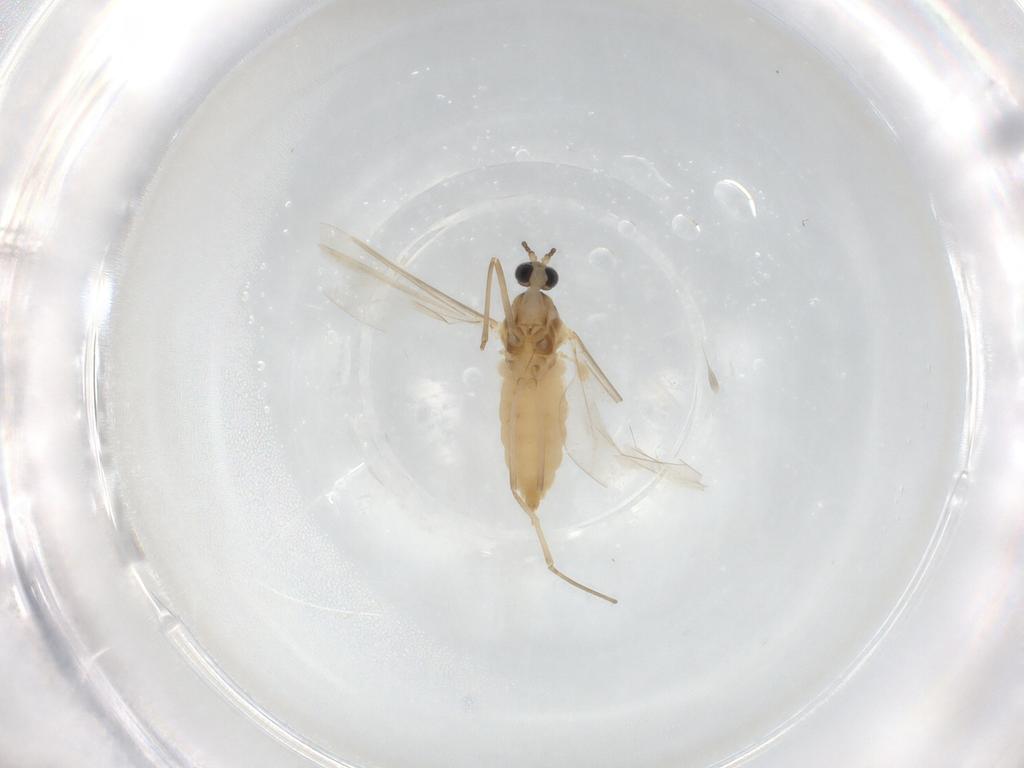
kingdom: Animalia
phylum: Arthropoda
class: Insecta
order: Diptera
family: Cecidomyiidae
